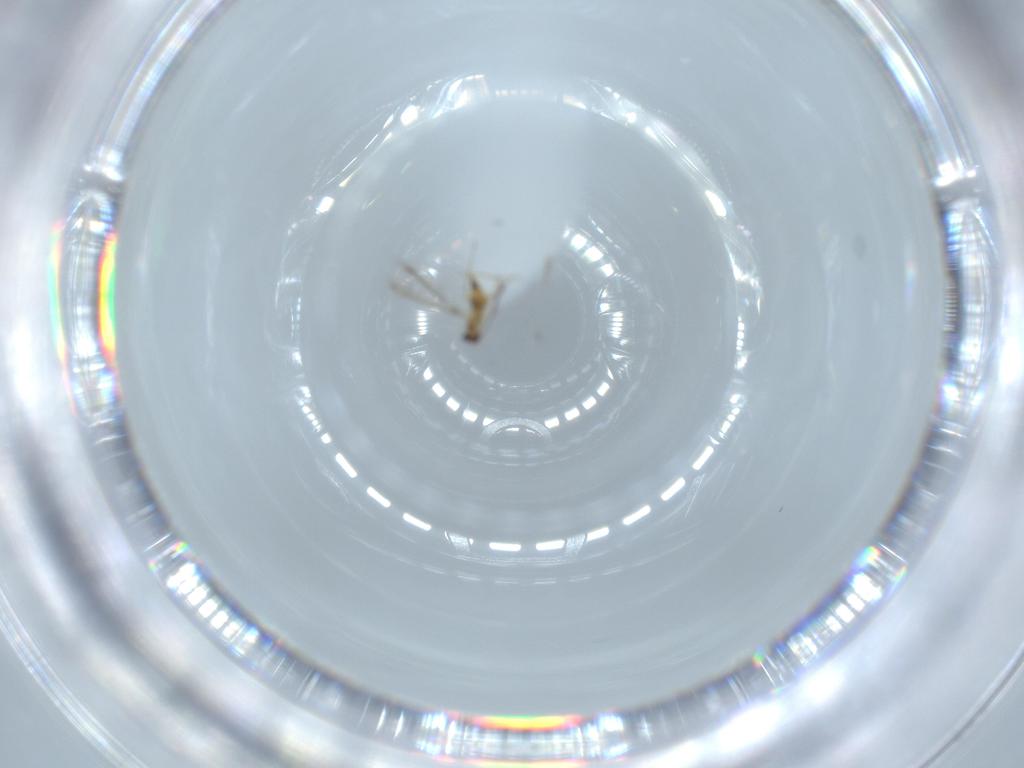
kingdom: Animalia
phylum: Arthropoda
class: Insecta
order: Hymenoptera
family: Mymaridae
